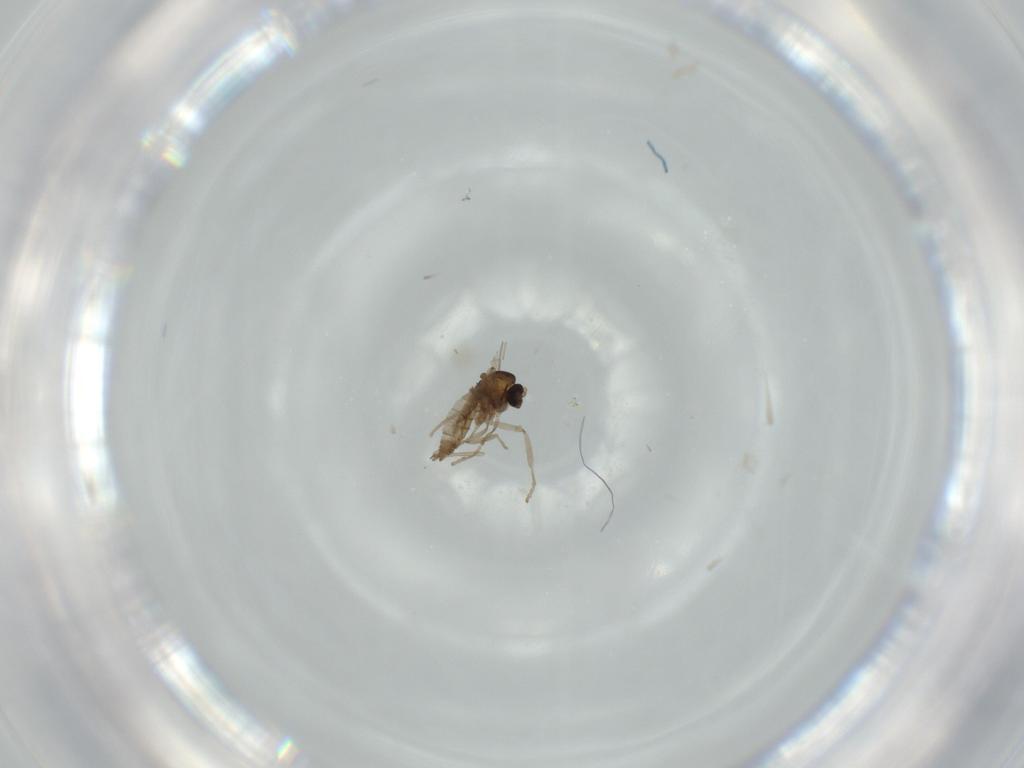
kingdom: Animalia
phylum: Arthropoda
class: Insecta
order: Diptera
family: Cecidomyiidae
